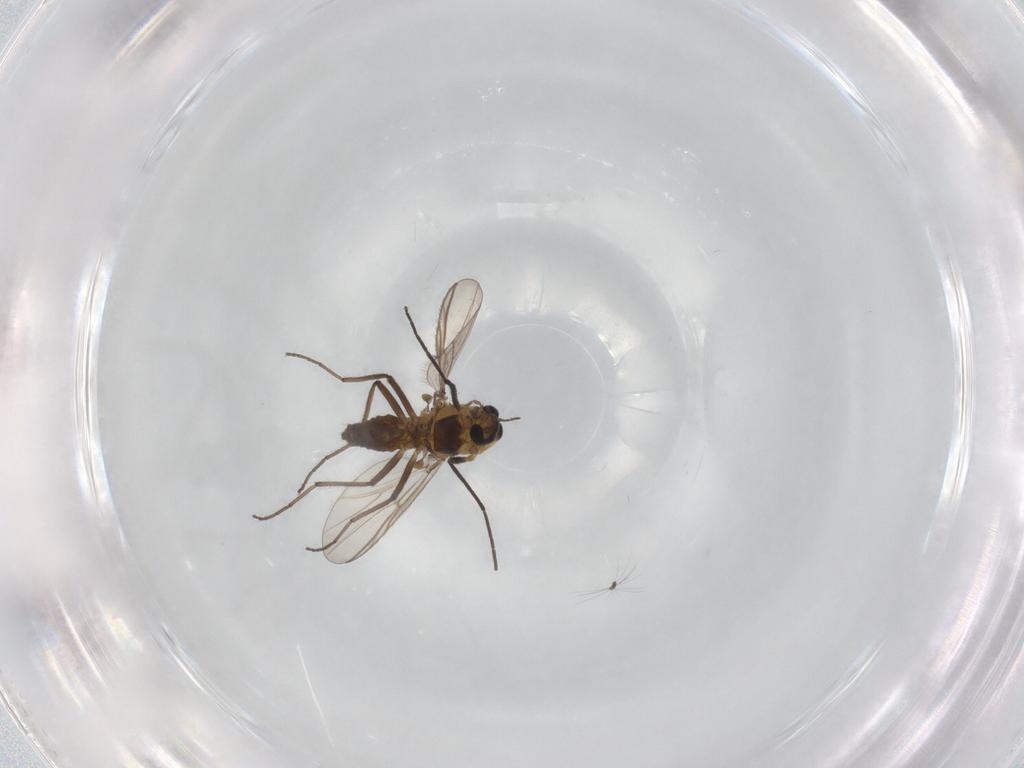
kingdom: Animalia
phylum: Arthropoda
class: Insecta
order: Diptera
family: Chironomidae
